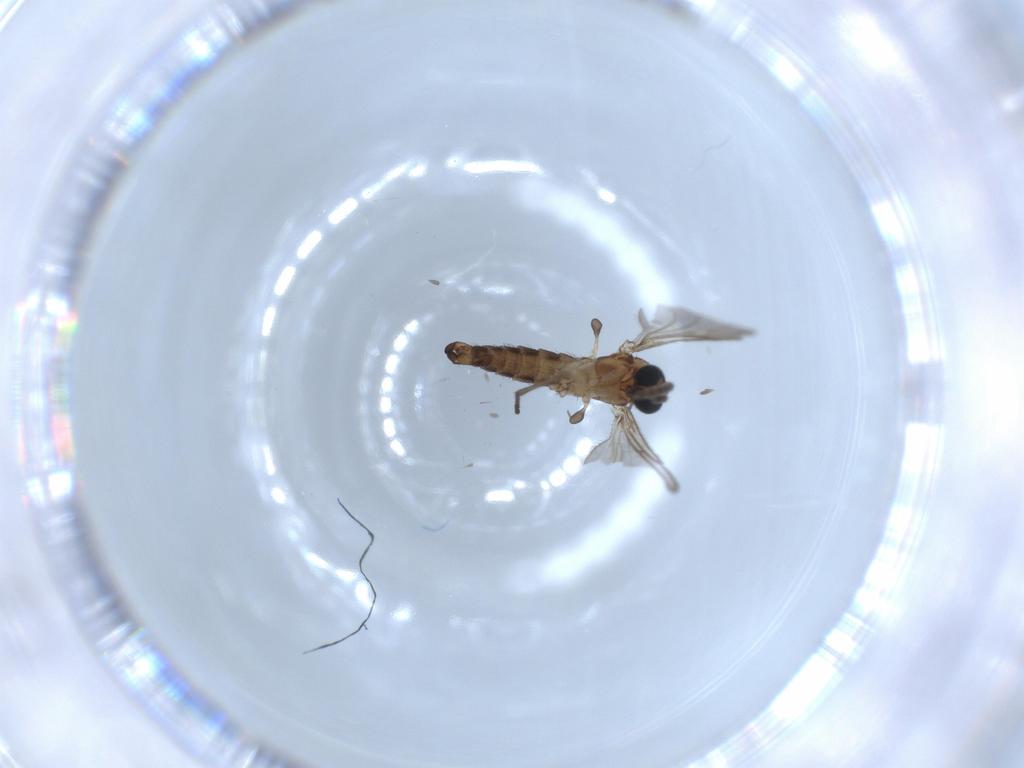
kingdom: Animalia
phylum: Arthropoda
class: Insecta
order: Diptera
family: Sciaridae
